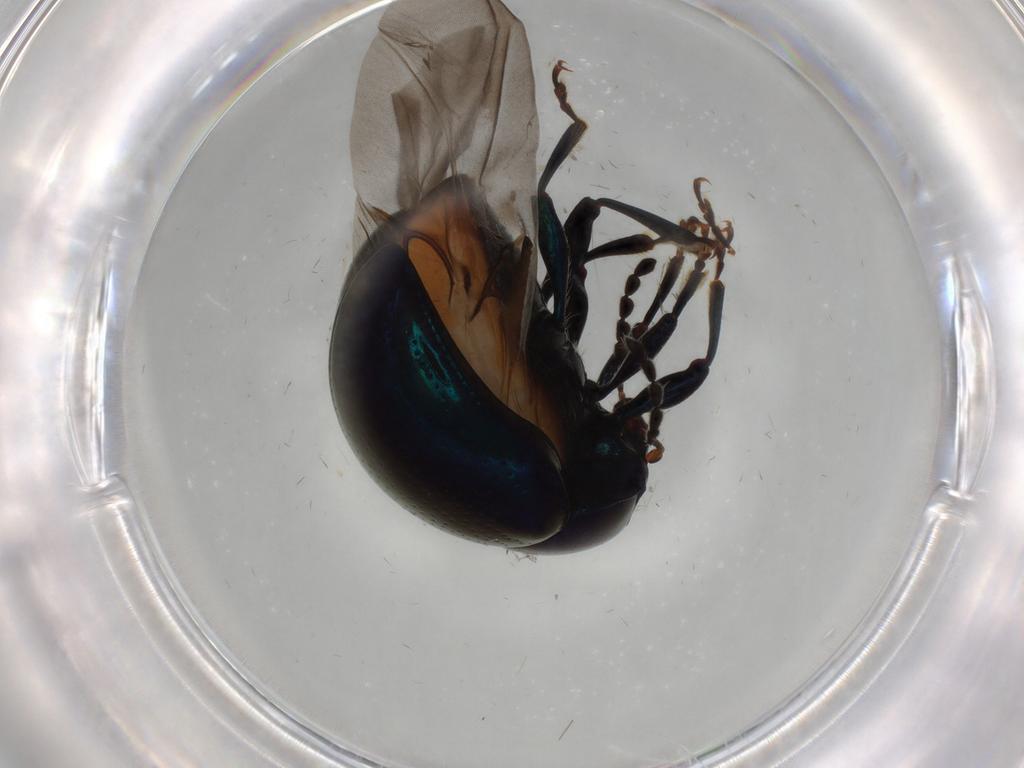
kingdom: Animalia
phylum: Arthropoda
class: Insecta
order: Coleoptera
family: Chrysomelidae
